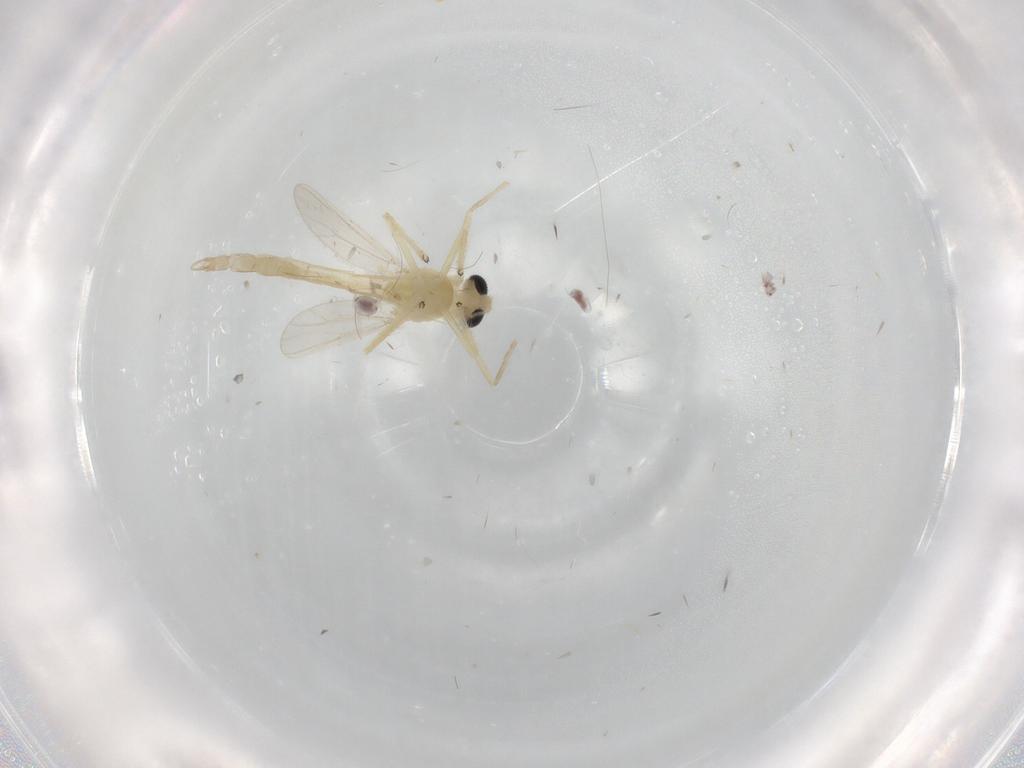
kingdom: Animalia
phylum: Arthropoda
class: Insecta
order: Diptera
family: Chironomidae
